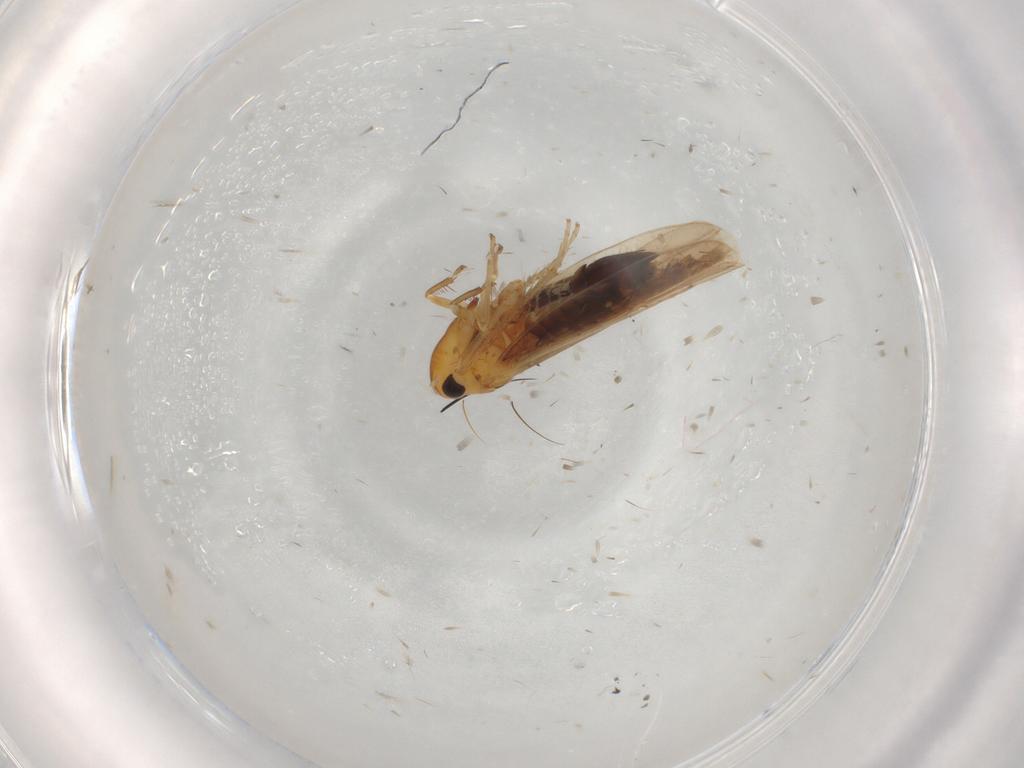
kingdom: Animalia
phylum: Arthropoda
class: Insecta
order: Hemiptera
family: Cicadellidae
